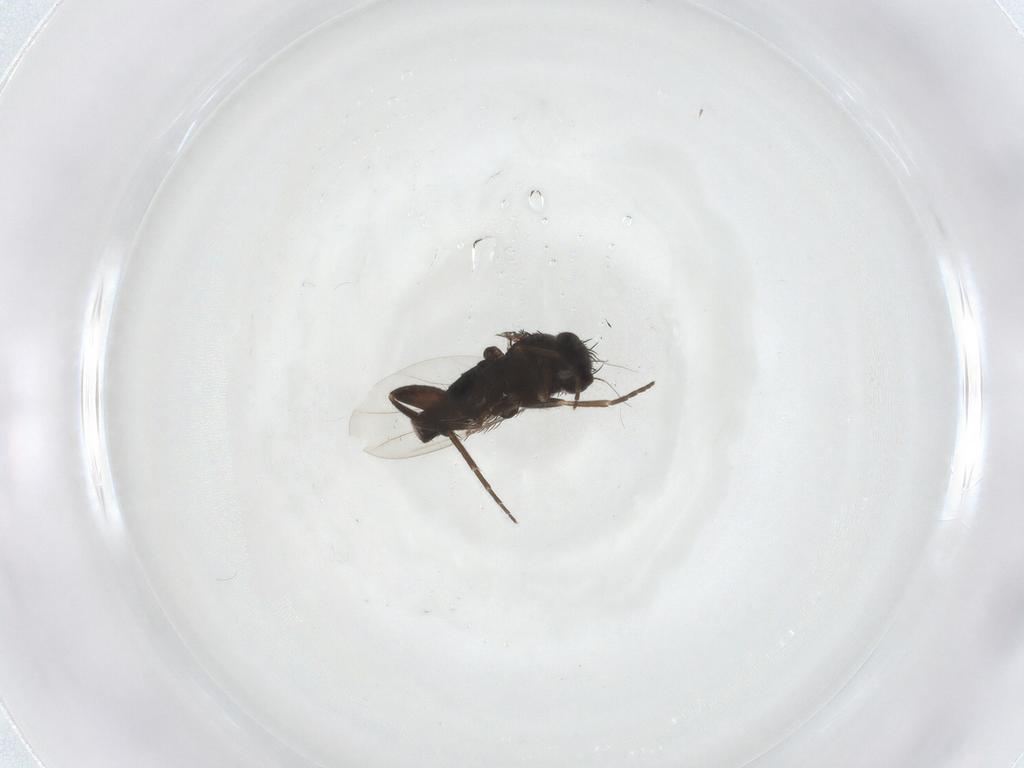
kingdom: Animalia
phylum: Arthropoda
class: Insecta
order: Diptera
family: Phoridae
